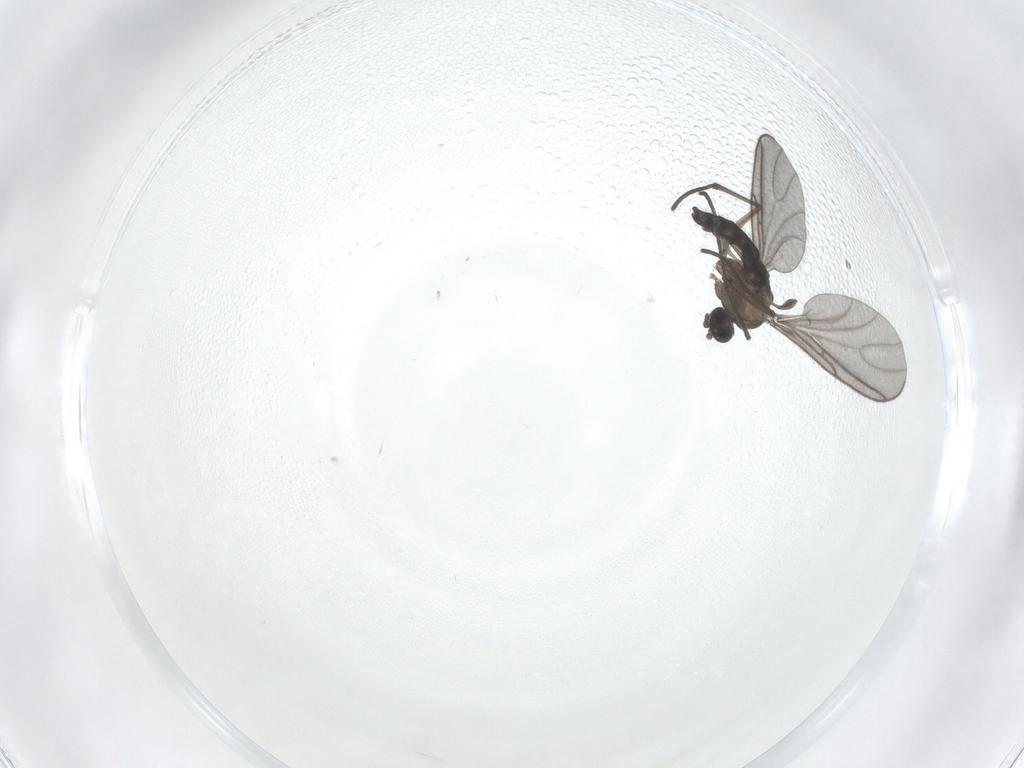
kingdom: Animalia
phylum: Arthropoda
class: Insecta
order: Diptera
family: Sciaridae
